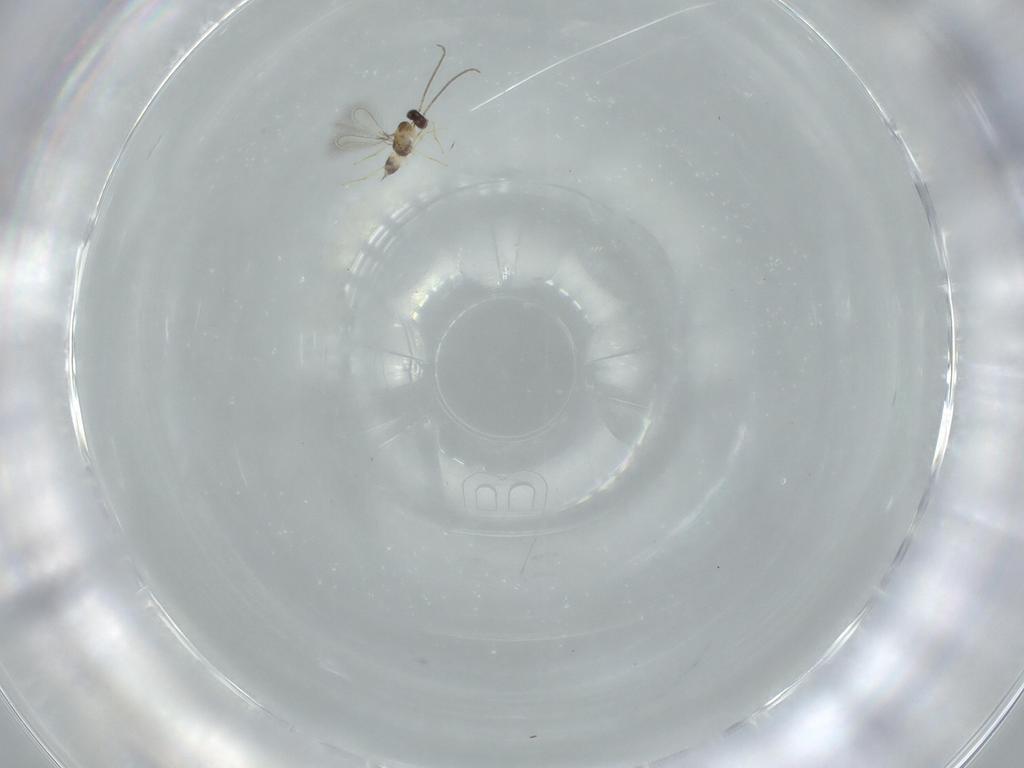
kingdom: Animalia
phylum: Arthropoda
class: Insecta
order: Hymenoptera
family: Mymaridae
